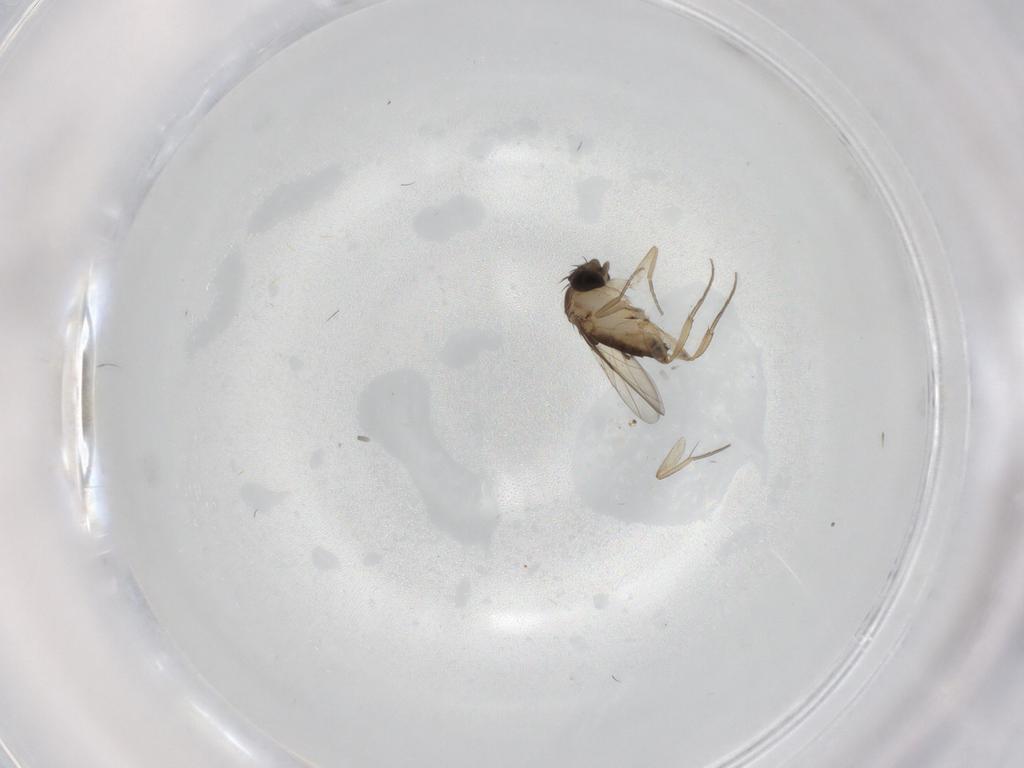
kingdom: Animalia
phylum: Arthropoda
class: Insecta
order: Diptera
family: Phoridae
